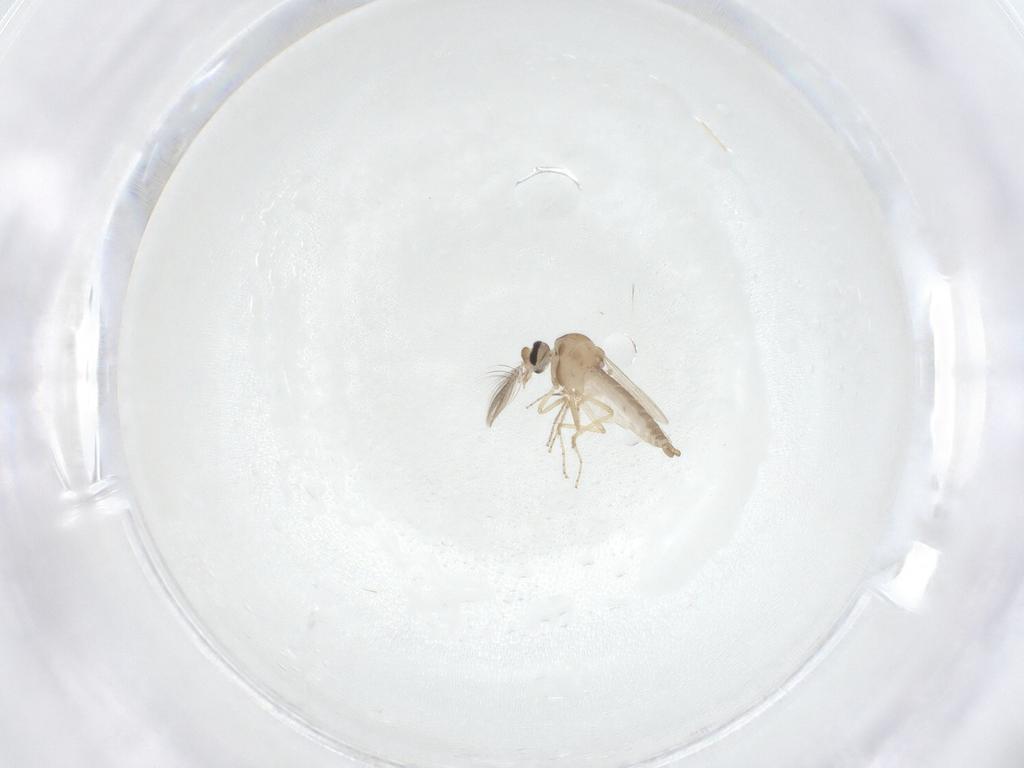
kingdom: Animalia
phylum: Arthropoda
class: Insecta
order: Diptera
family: Ceratopogonidae
